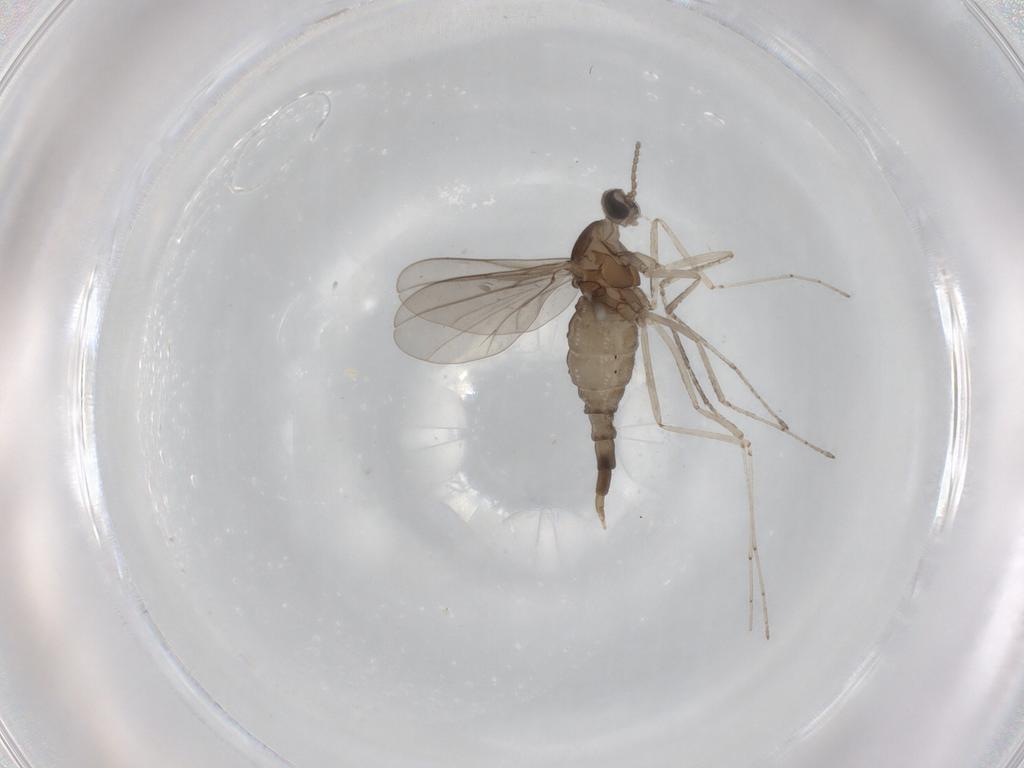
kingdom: Animalia
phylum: Arthropoda
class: Insecta
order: Diptera
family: Cecidomyiidae
